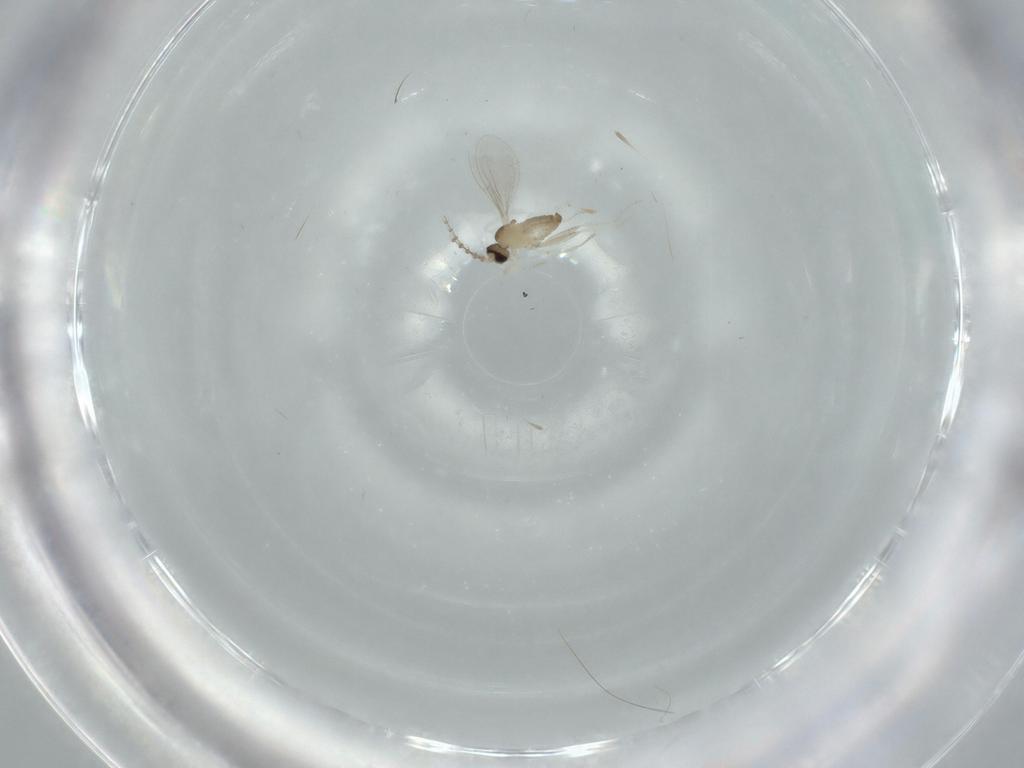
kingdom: Animalia
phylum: Arthropoda
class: Insecta
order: Diptera
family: Cecidomyiidae
